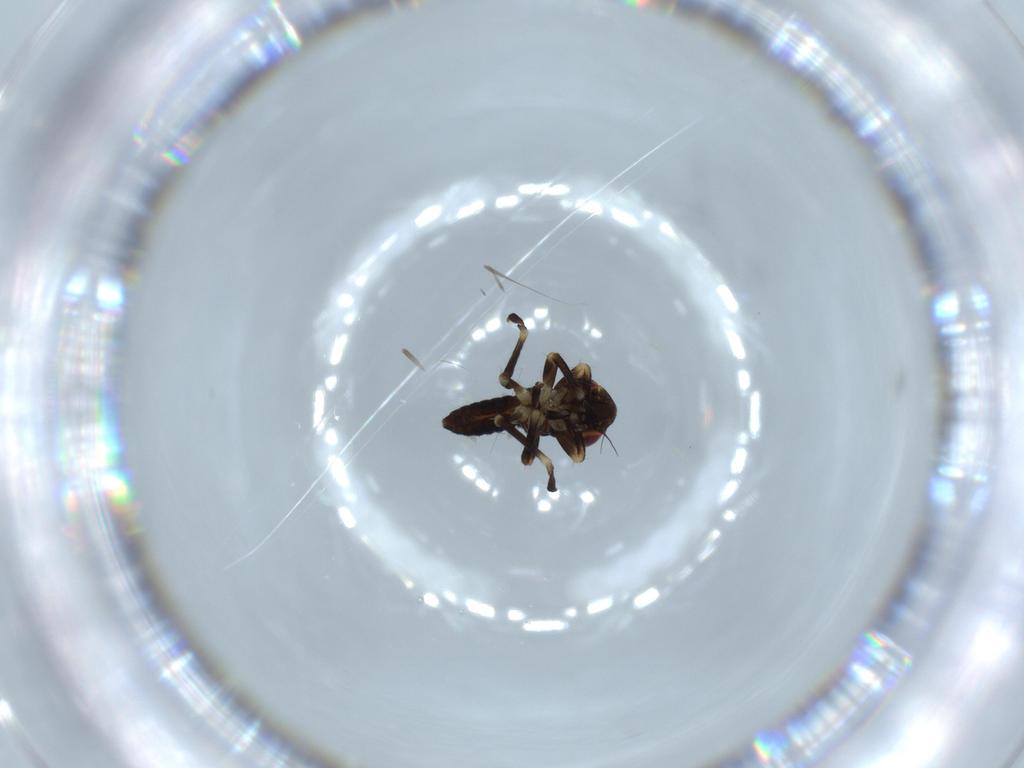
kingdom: Animalia
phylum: Arthropoda
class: Insecta
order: Hemiptera
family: Cicadellidae
